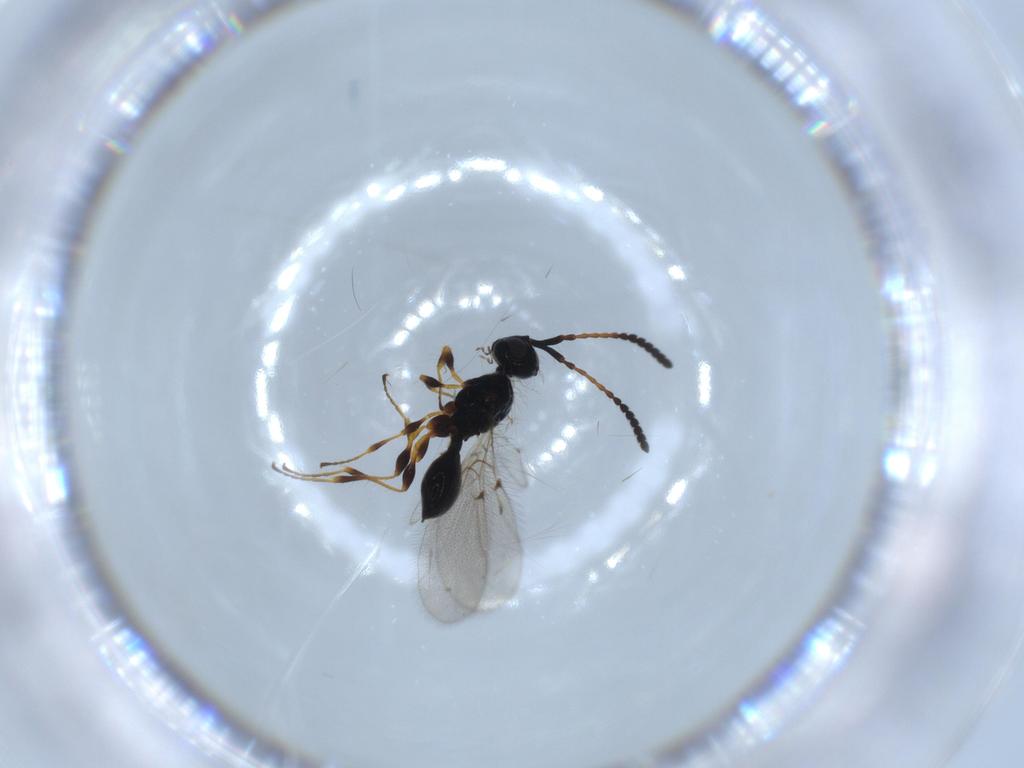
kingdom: Animalia
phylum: Arthropoda
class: Insecta
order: Hymenoptera
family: Diapriidae
